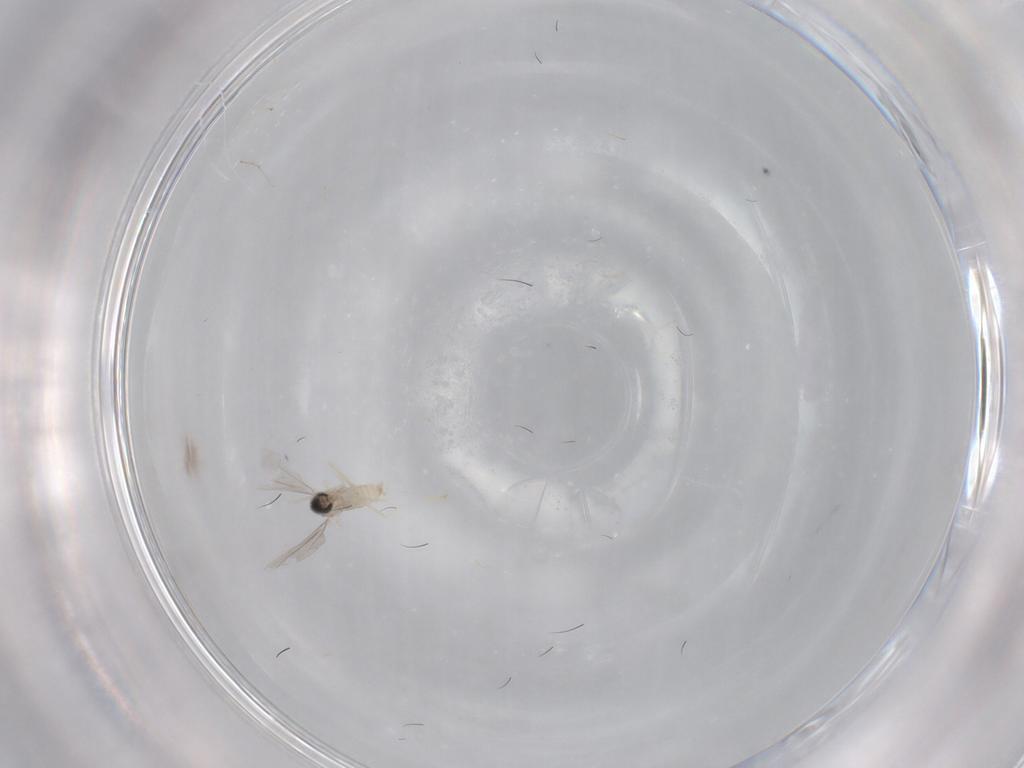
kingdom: Animalia
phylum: Arthropoda
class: Insecta
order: Diptera
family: Cecidomyiidae
